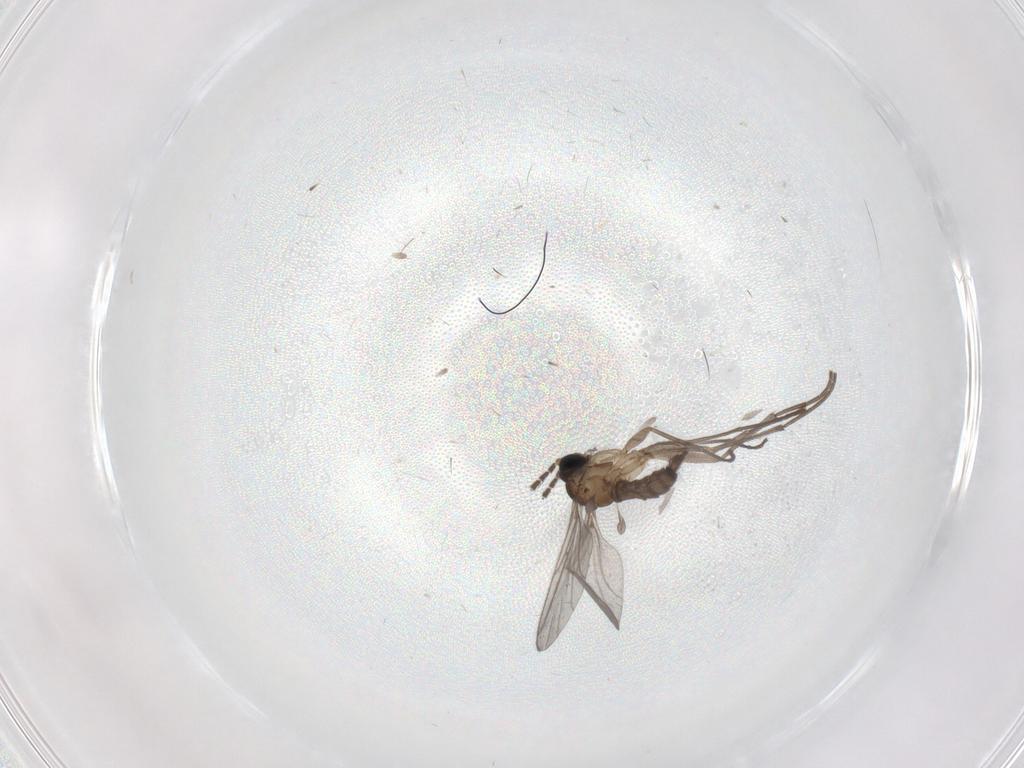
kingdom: Animalia
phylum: Arthropoda
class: Insecta
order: Diptera
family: Sciaridae
